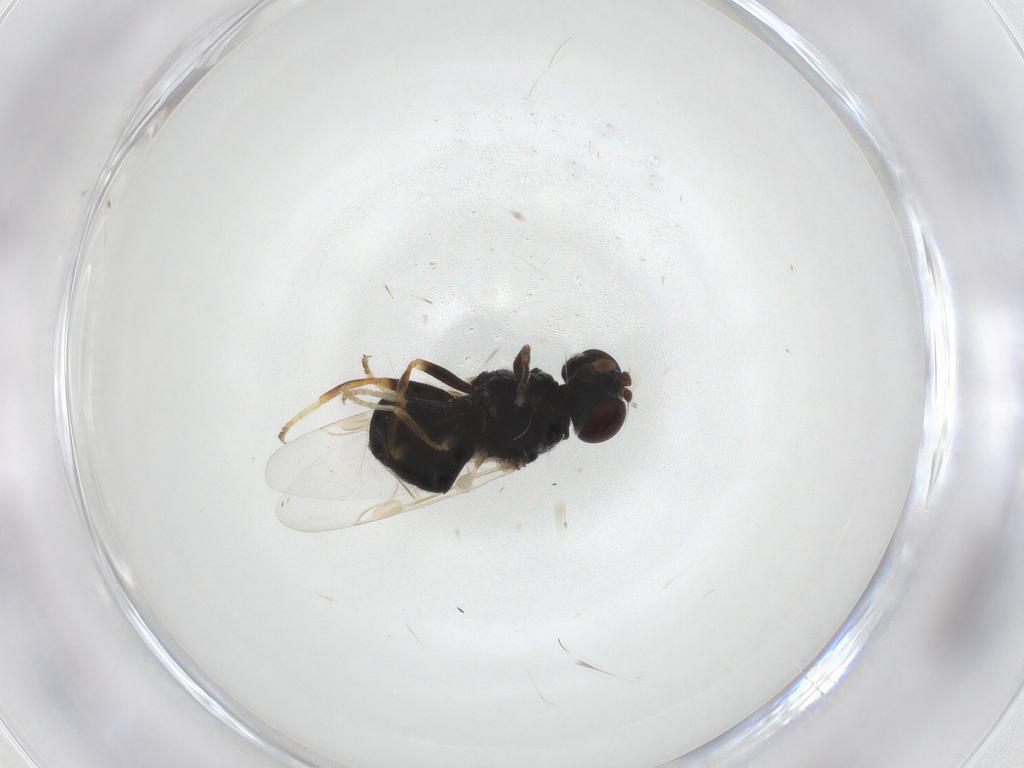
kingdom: Animalia
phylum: Arthropoda
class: Insecta
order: Diptera
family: Stratiomyidae
